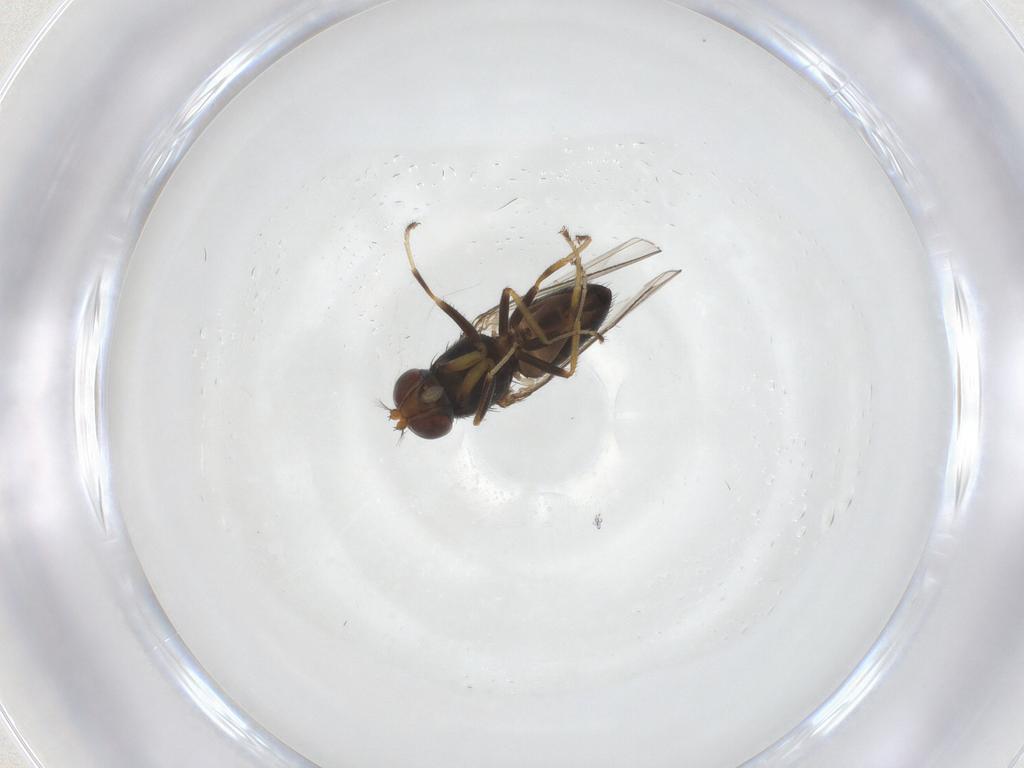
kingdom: Animalia
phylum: Arthropoda
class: Insecta
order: Diptera
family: Ephydridae
